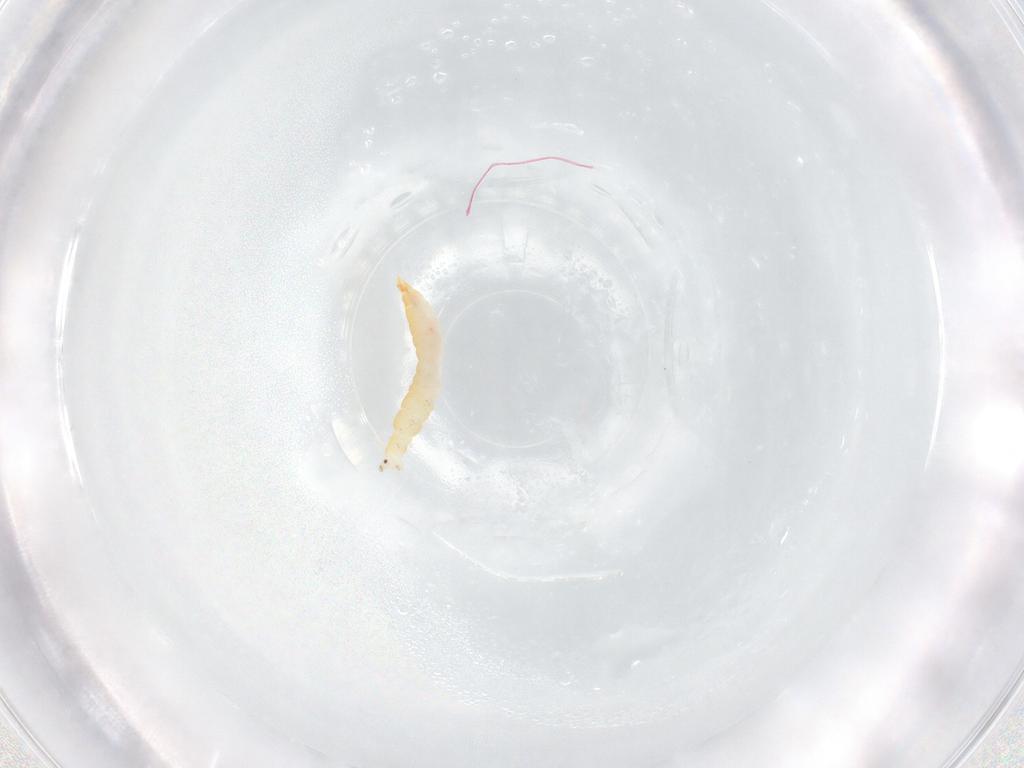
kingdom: Animalia
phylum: Arthropoda
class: Insecta
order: Thysanoptera
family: Aeolothripidae
